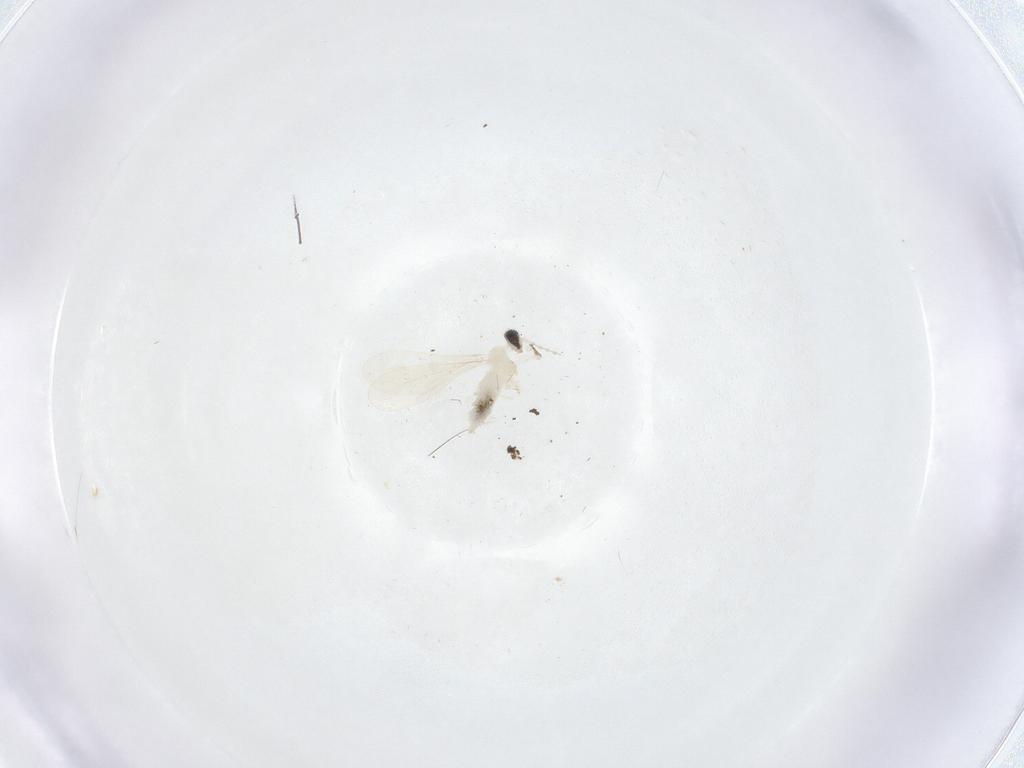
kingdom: Animalia
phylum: Arthropoda
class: Insecta
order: Diptera
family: Cecidomyiidae
